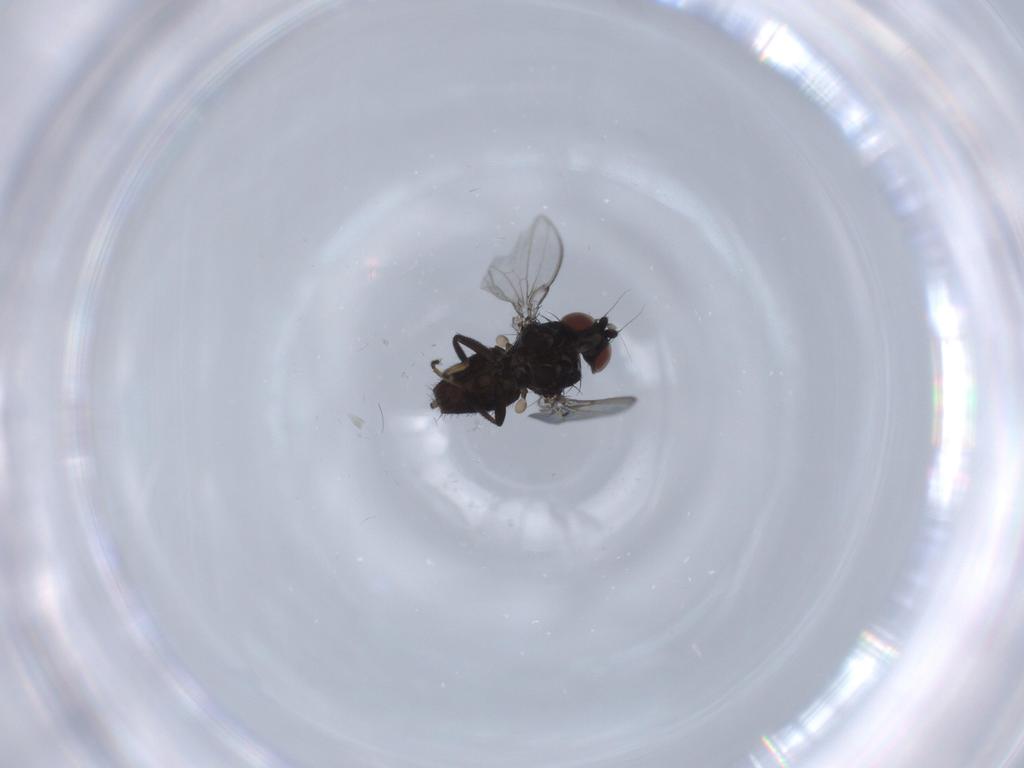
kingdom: Animalia
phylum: Arthropoda
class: Insecta
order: Diptera
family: Milichiidae
